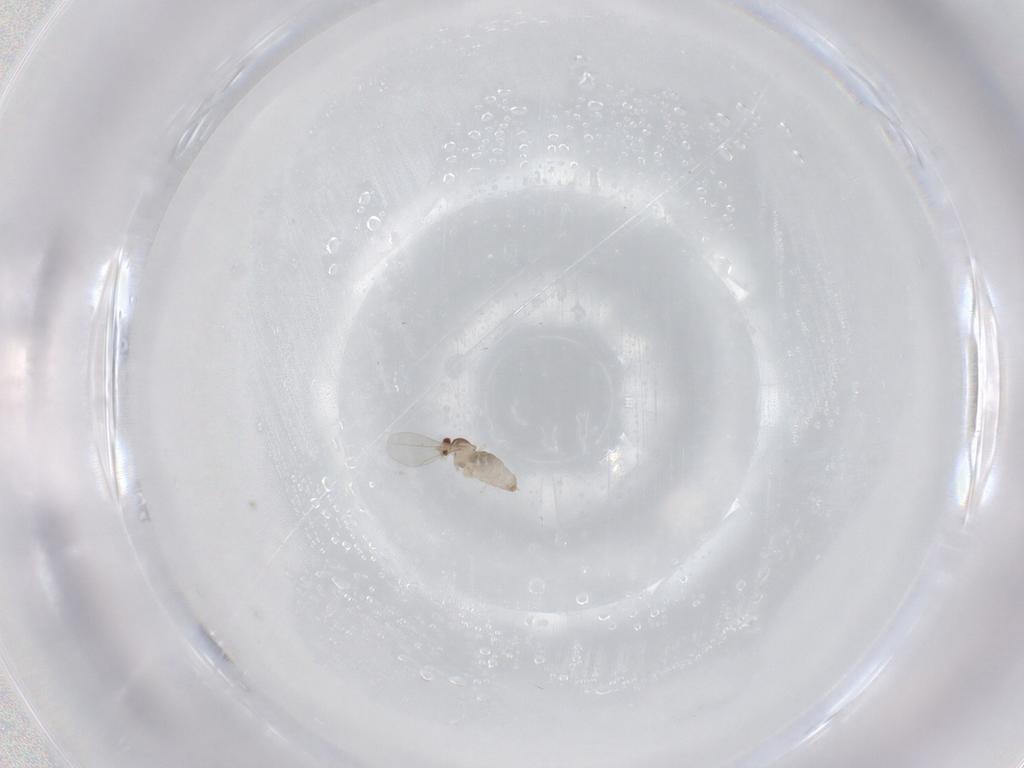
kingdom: Animalia
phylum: Arthropoda
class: Insecta
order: Diptera
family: Cecidomyiidae
